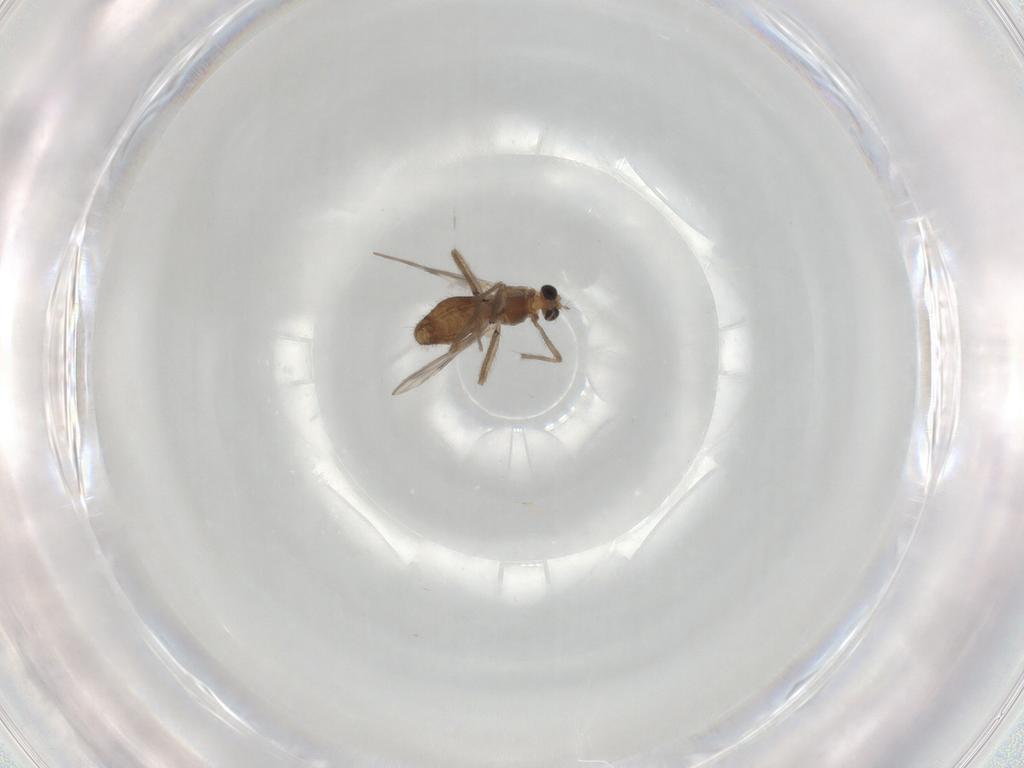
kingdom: Animalia
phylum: Arthropoda
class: Insecta
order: Diptera
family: Chironomidae
